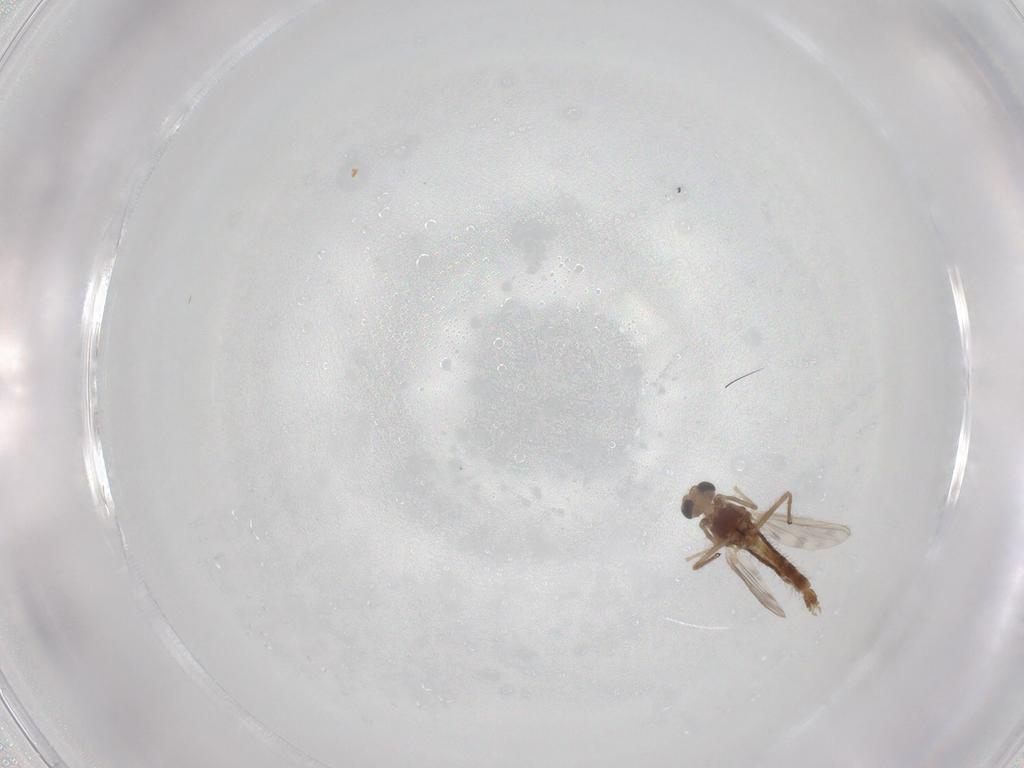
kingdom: Animalia
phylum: Arthropoda
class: Insecta
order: Diptera
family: Chironomidae
